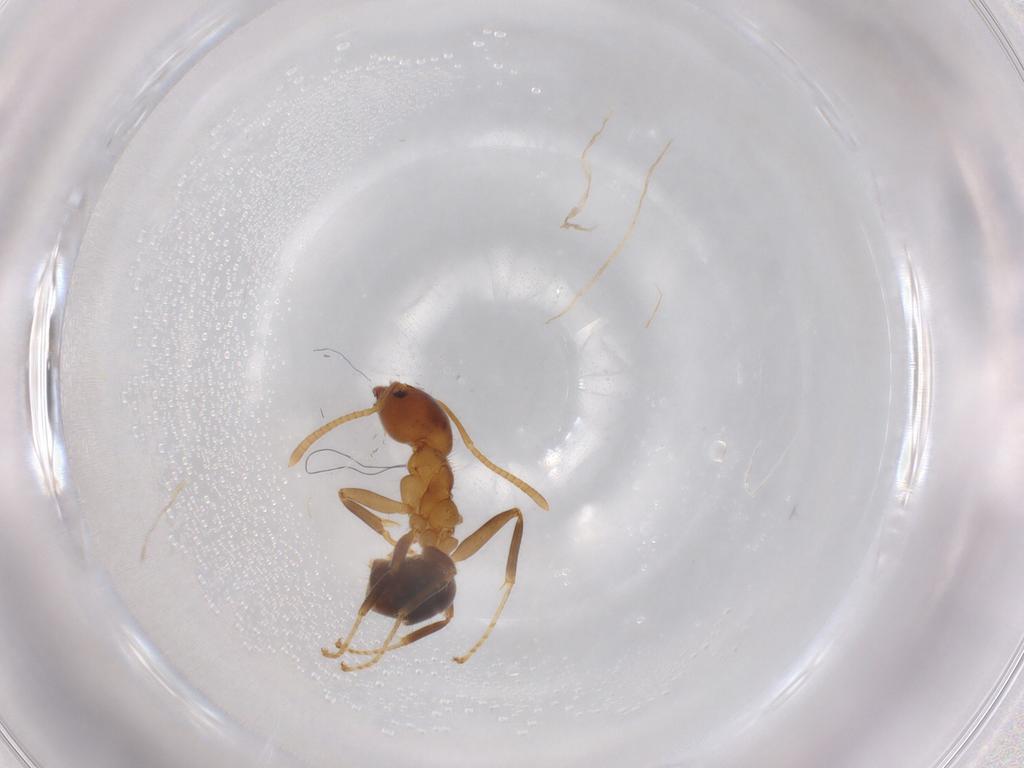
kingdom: Animalia
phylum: Arthropoda
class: Insecta
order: Hymenoptera
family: Formicidae
